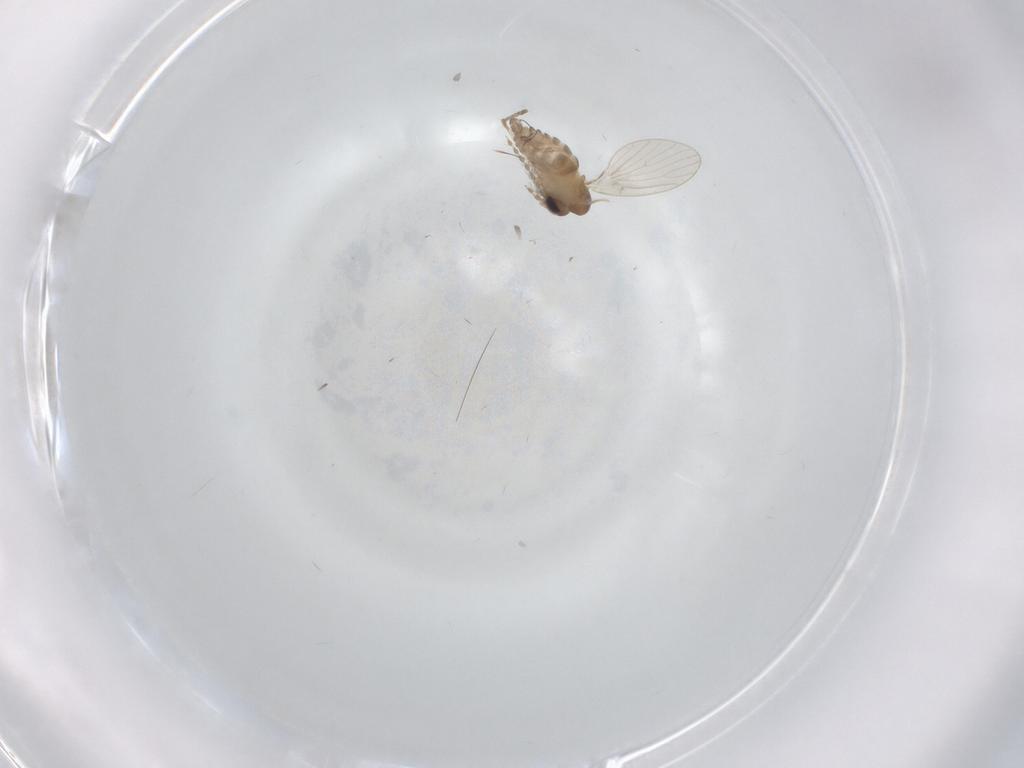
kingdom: Animalia
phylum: Arthropoda
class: Insecta
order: Diptera
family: Psychodidae
